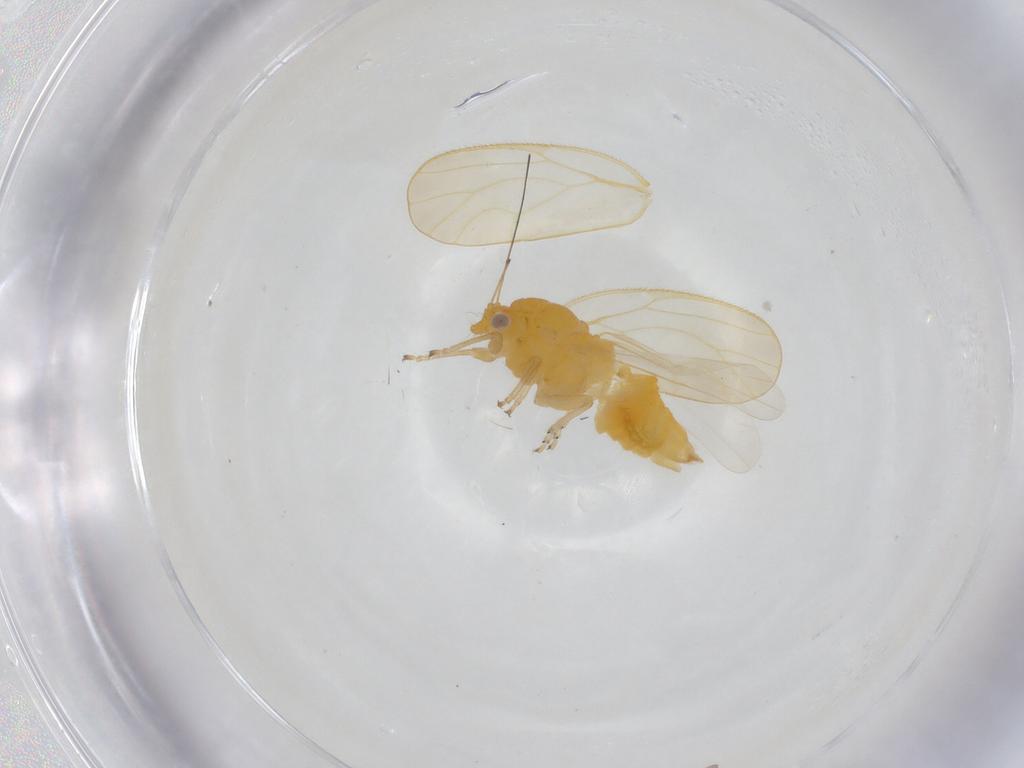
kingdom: Animalia
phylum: Arthropoda
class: Insecta
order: Hemiptera
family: Psyllidae
